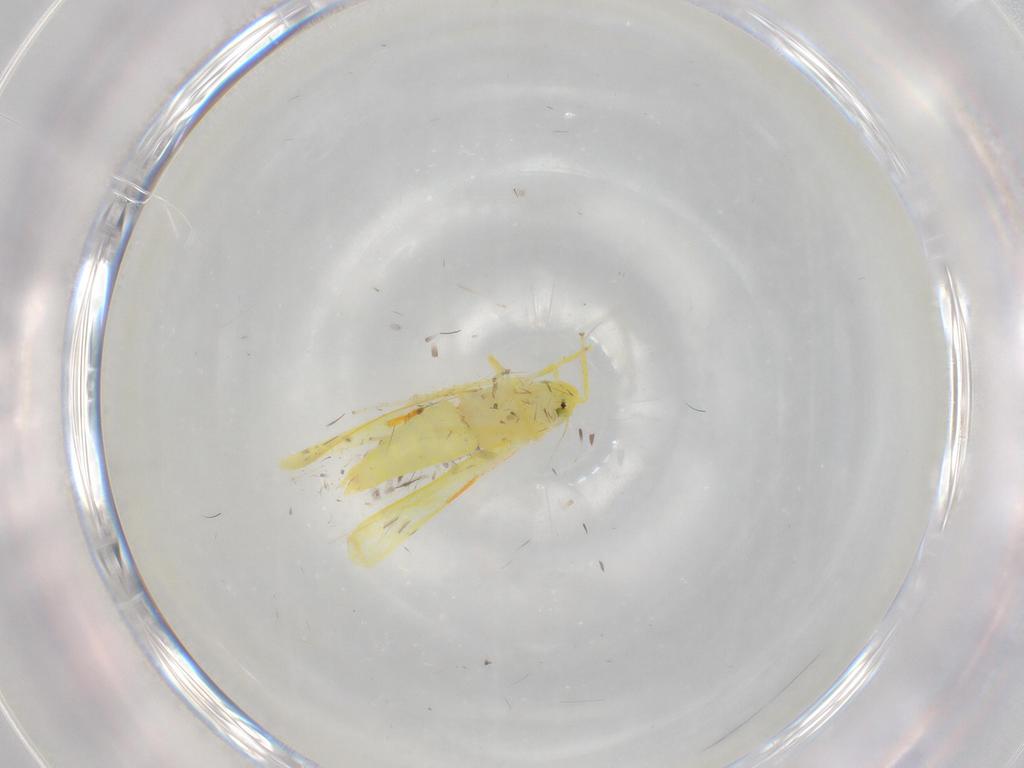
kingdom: Animalia
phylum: Arthropoda
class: Insecta
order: Hemiptera
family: Cicadellidae
